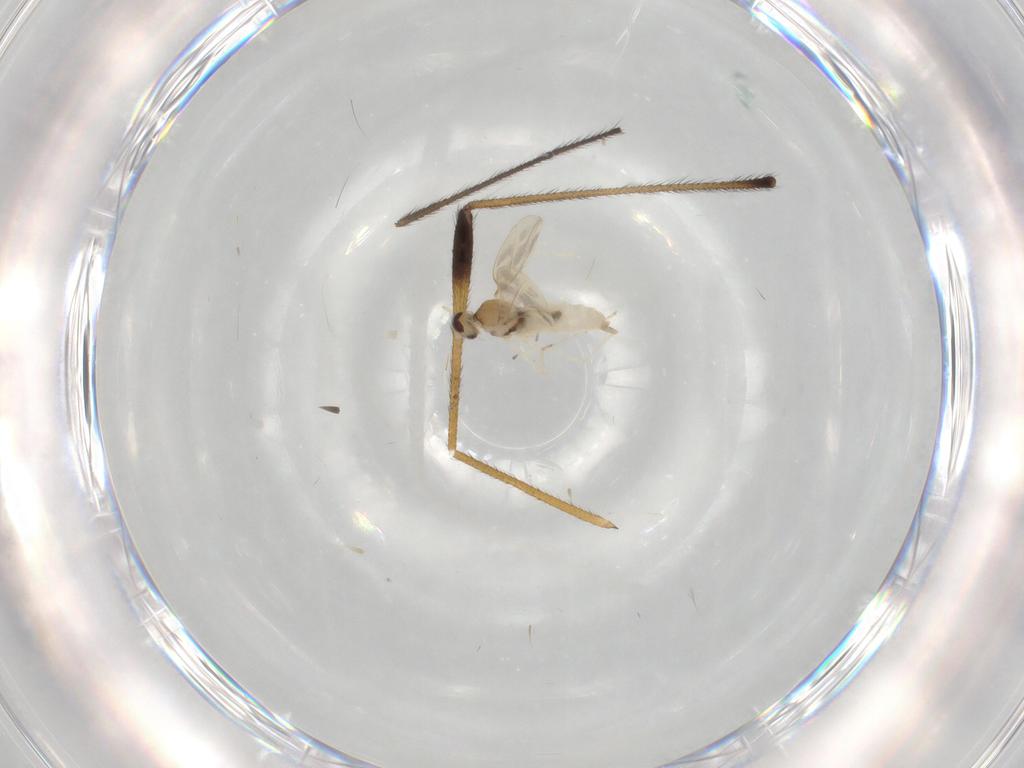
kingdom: Animalia
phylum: Arthropoda
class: Insecta
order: Diptera
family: Cecidomyiidae
